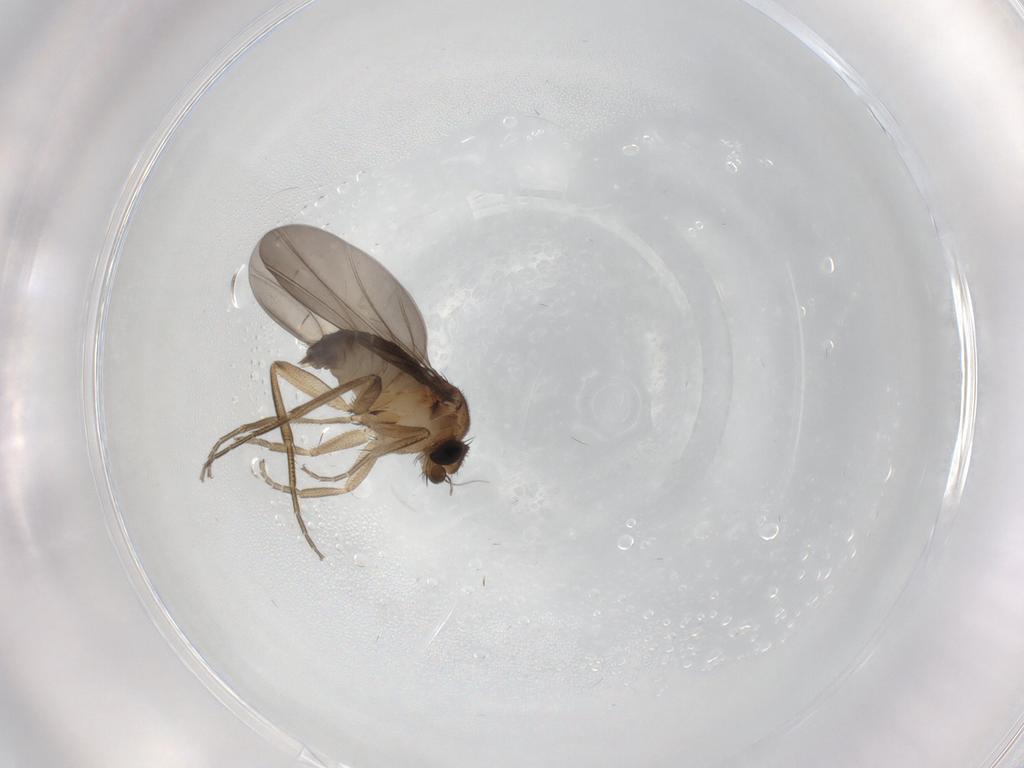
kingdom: Animalia
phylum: Arthropoda
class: Insecta
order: Diptera
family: Phoridae
